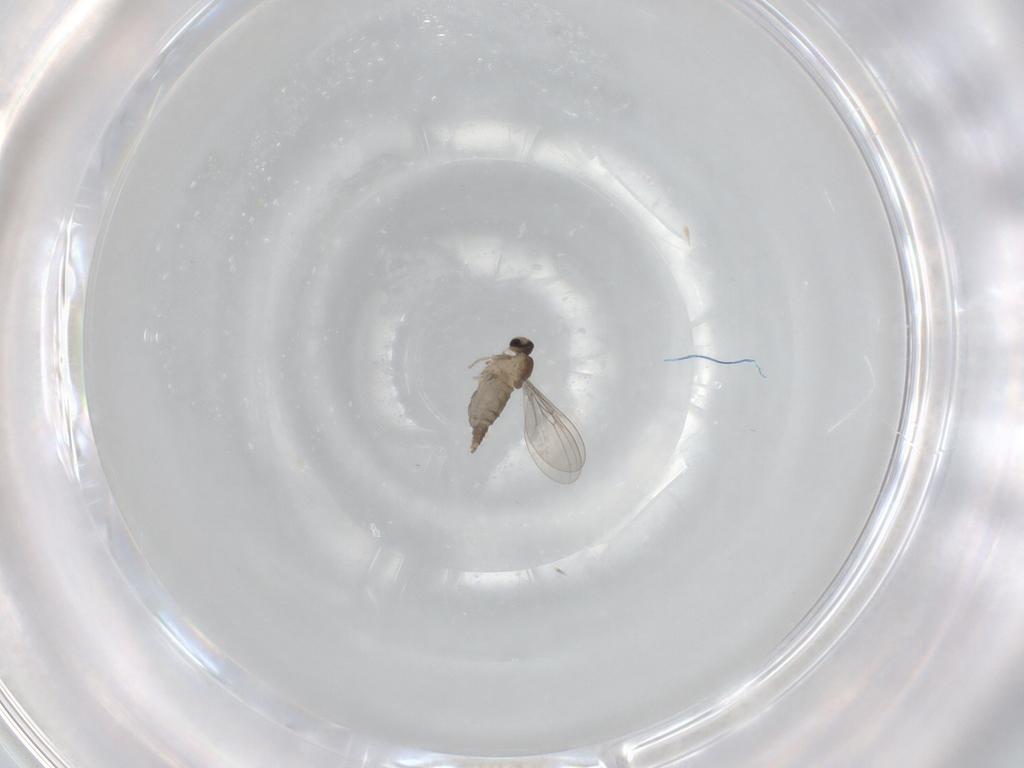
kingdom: Animalia
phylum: Arthropoda
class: Insecta
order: Diptera
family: Cecidomyiidae
